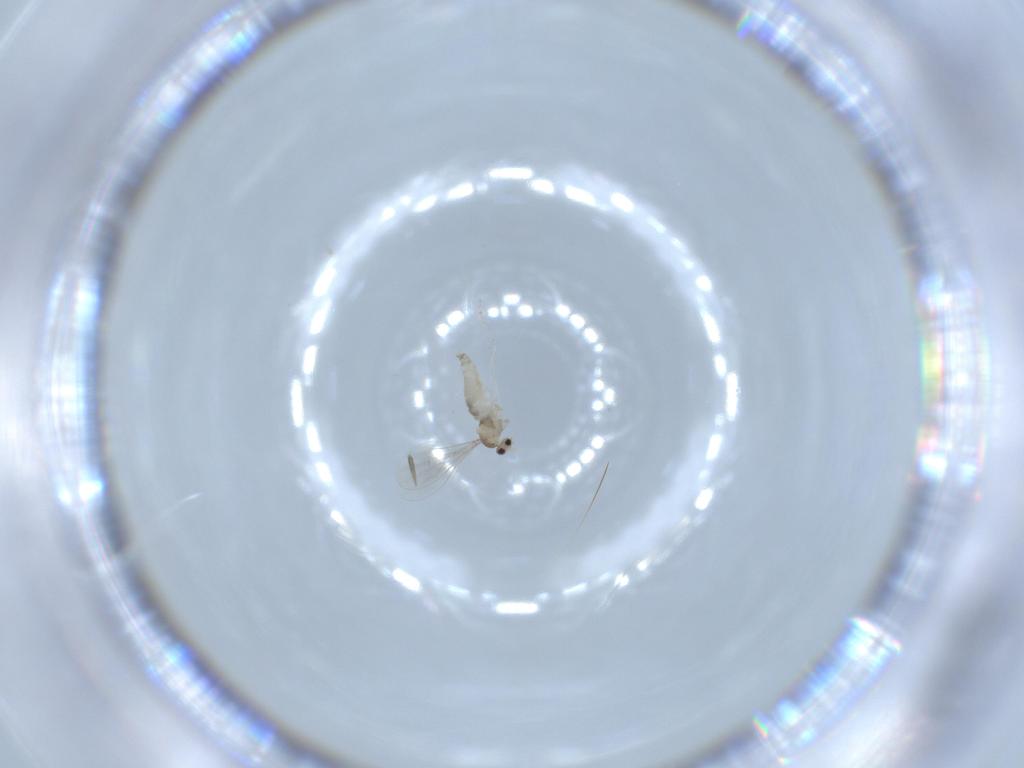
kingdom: Animalia
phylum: Arthropoda
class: Insecta
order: Diptera
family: Cecidomyiidae
